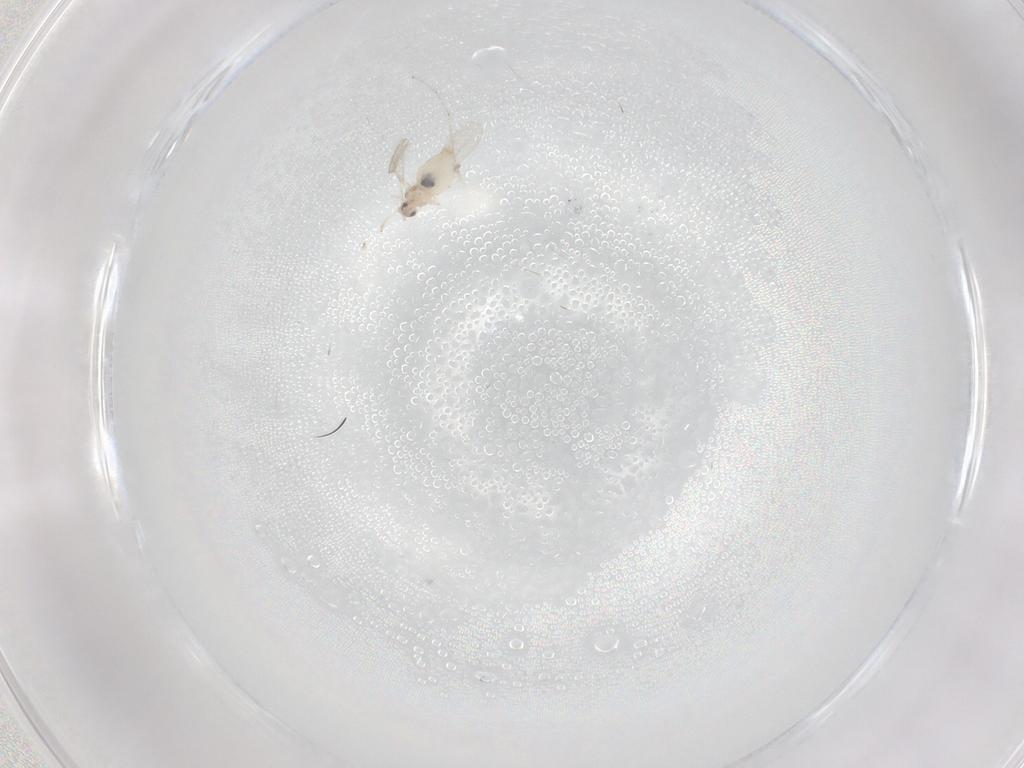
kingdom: Animalia
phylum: Arthropoda
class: Insecta
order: Diptera
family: Cecidomyiidae
